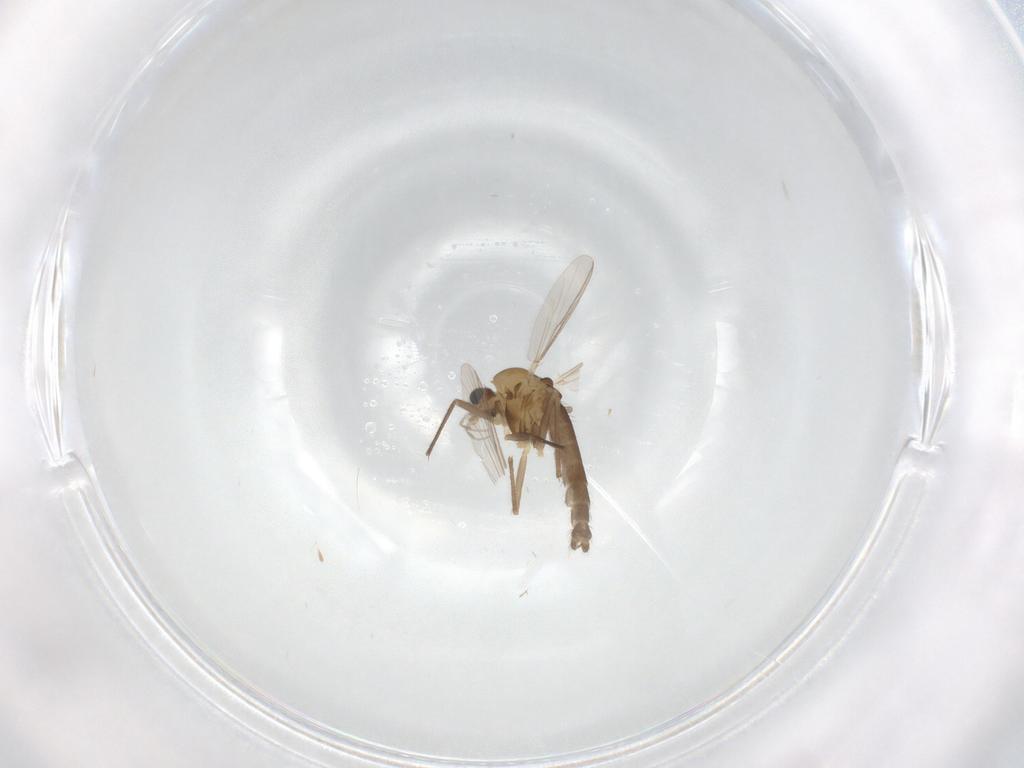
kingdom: Animalia
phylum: Arthropoda
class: Insecta
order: Diptera
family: Chironomidae
